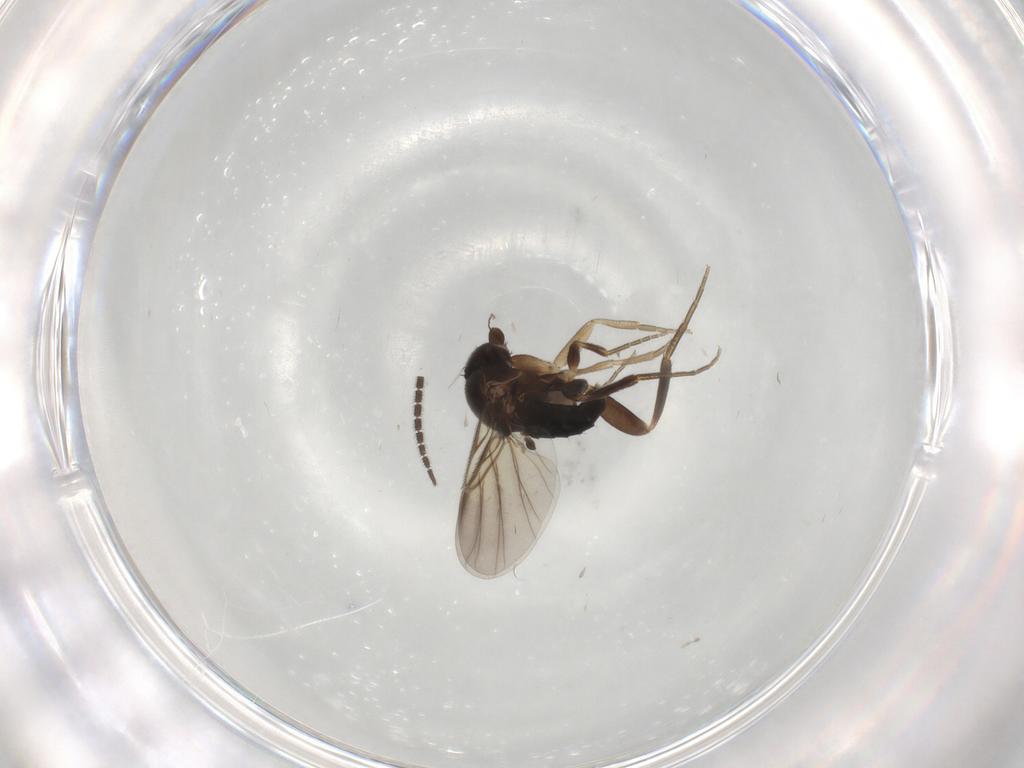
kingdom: Animalia
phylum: Arthropoda
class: Insecta
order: Diptera
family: Phoridae
